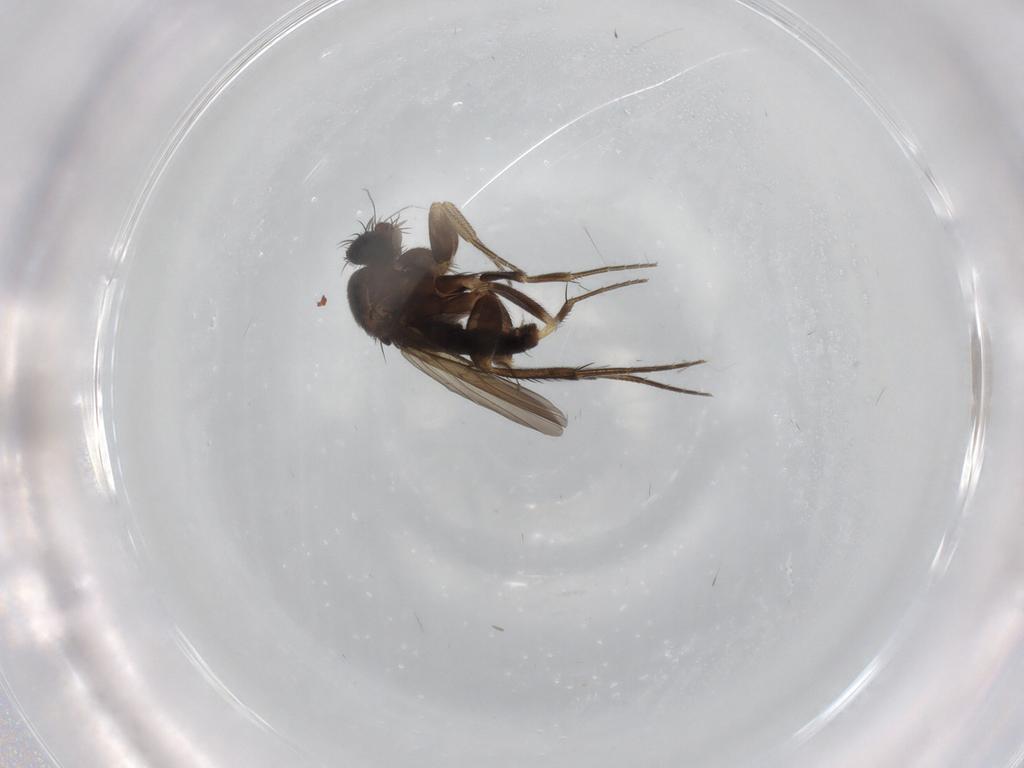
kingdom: Animalia
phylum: Arthropoda
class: Insecta
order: Diptera
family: Phoridae
